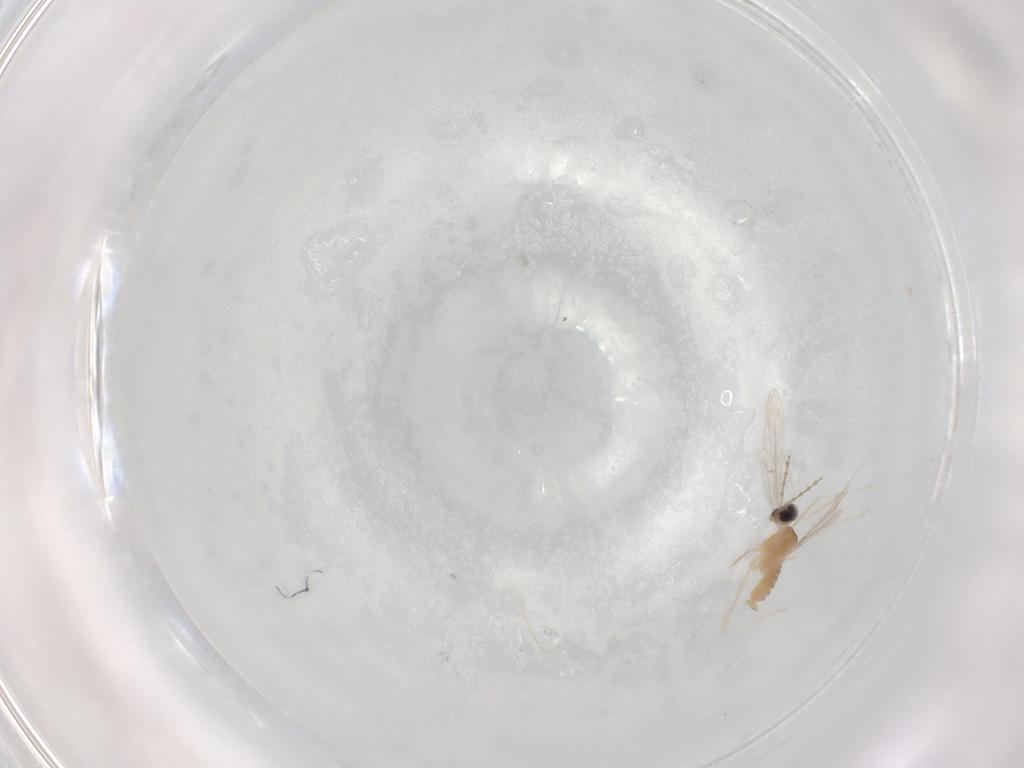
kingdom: Animalia
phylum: Arthropoda
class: Insecta
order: Diptera
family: Cecidomyiidae
